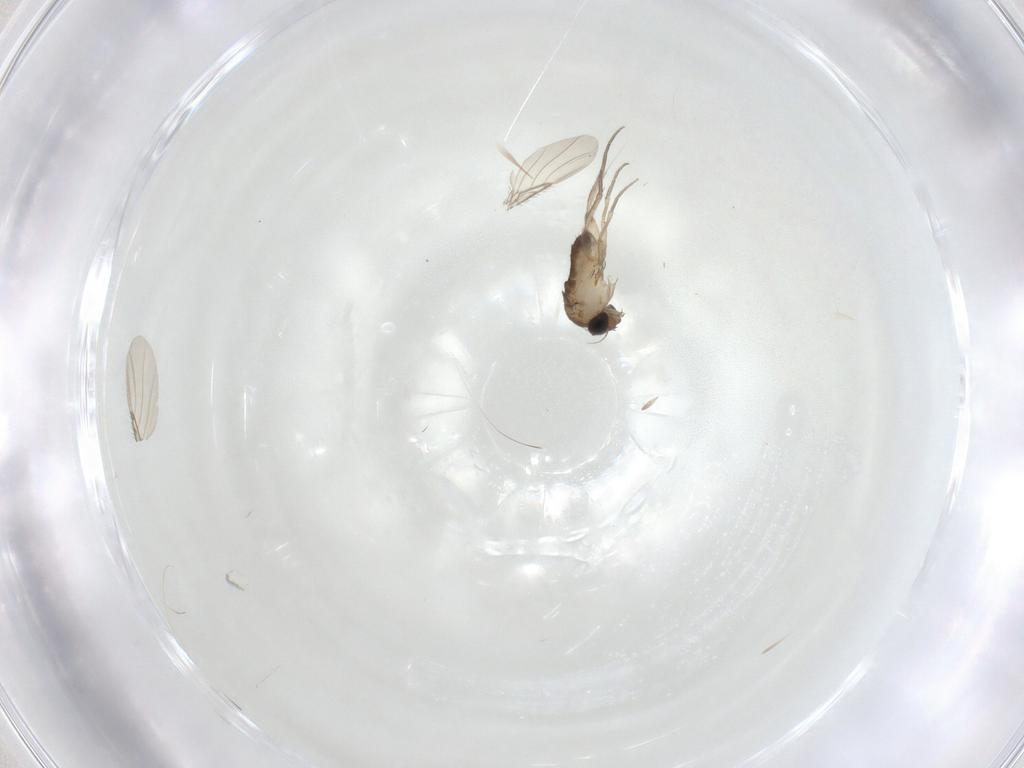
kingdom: Animalia
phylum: Arthropoda
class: Insecta
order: Diptera
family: Phoridae
